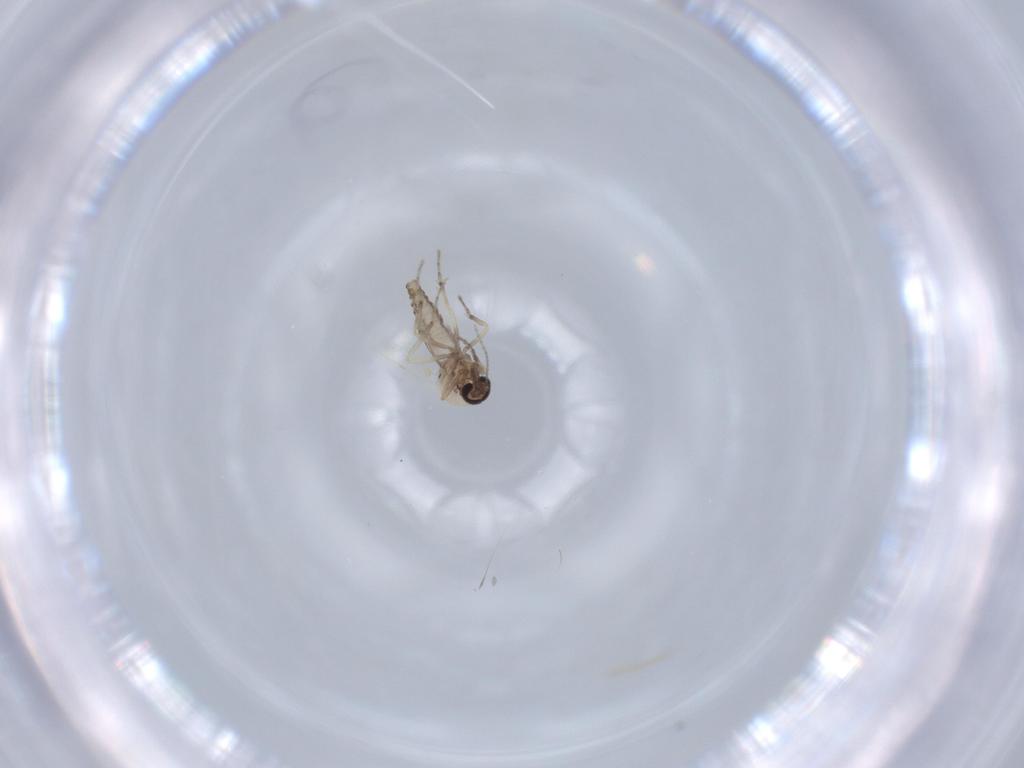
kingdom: Animalia
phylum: Arthropoda
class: Insecta
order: Diptera
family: Ceratopogonidae
